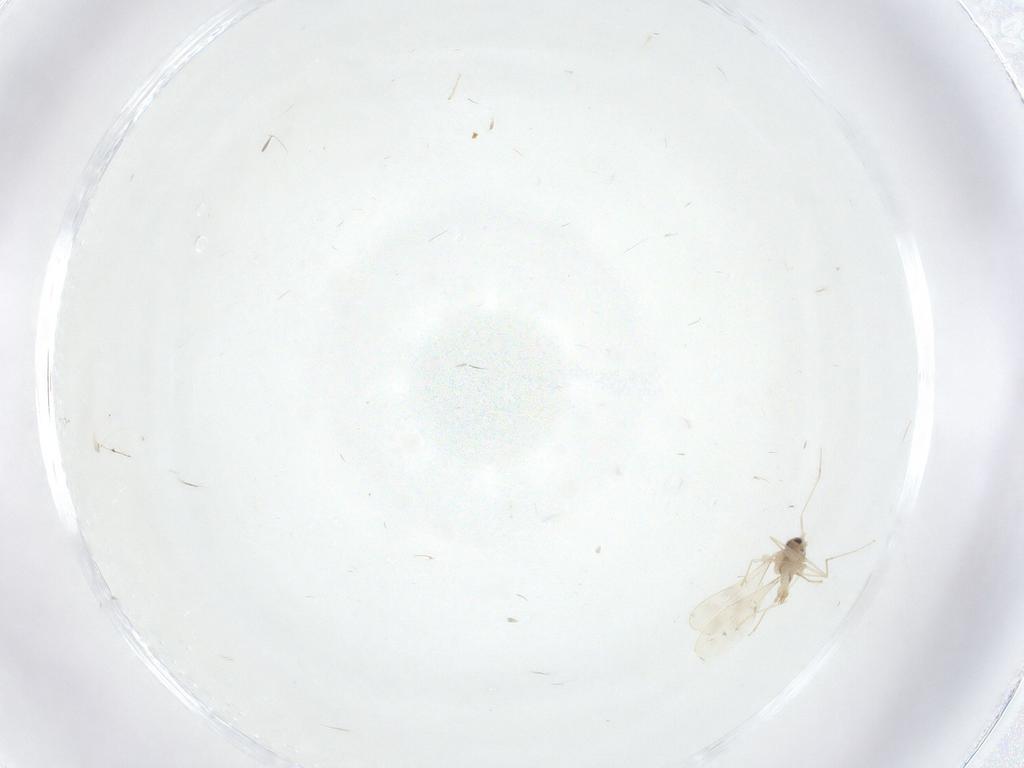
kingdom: Animalia
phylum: Arthropoda
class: Insecta
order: Diptera
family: Cecidomyiidae
